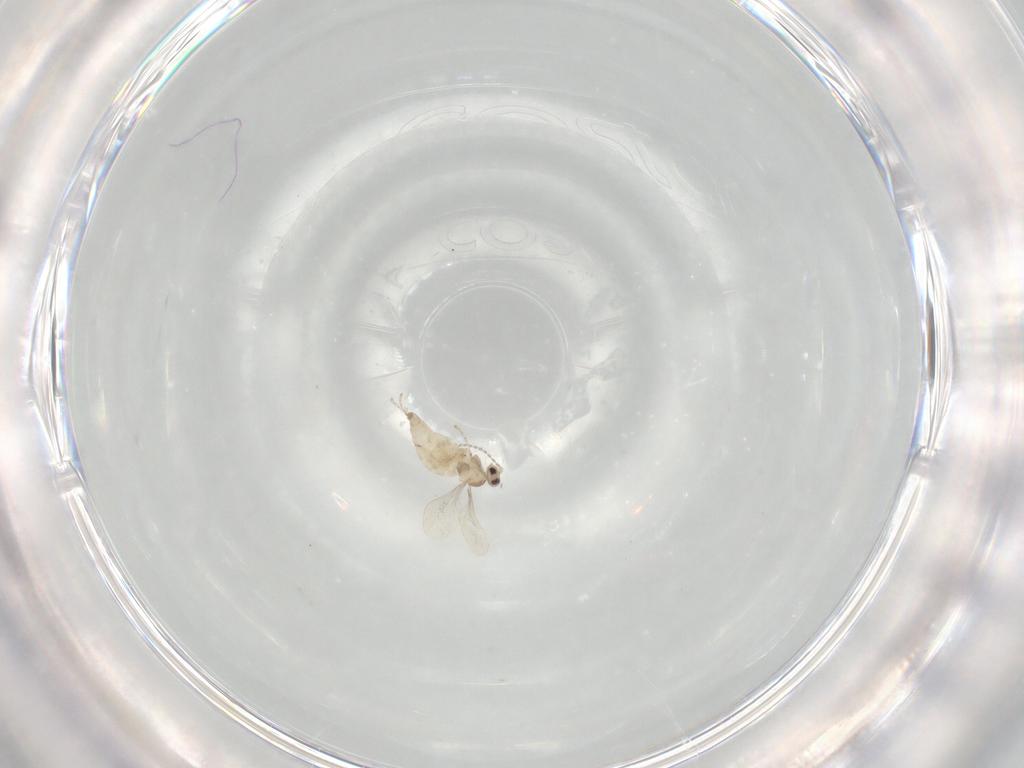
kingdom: Animalia
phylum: Arthropoda
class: Insecta
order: Diptera
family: Cecidomyiidae
